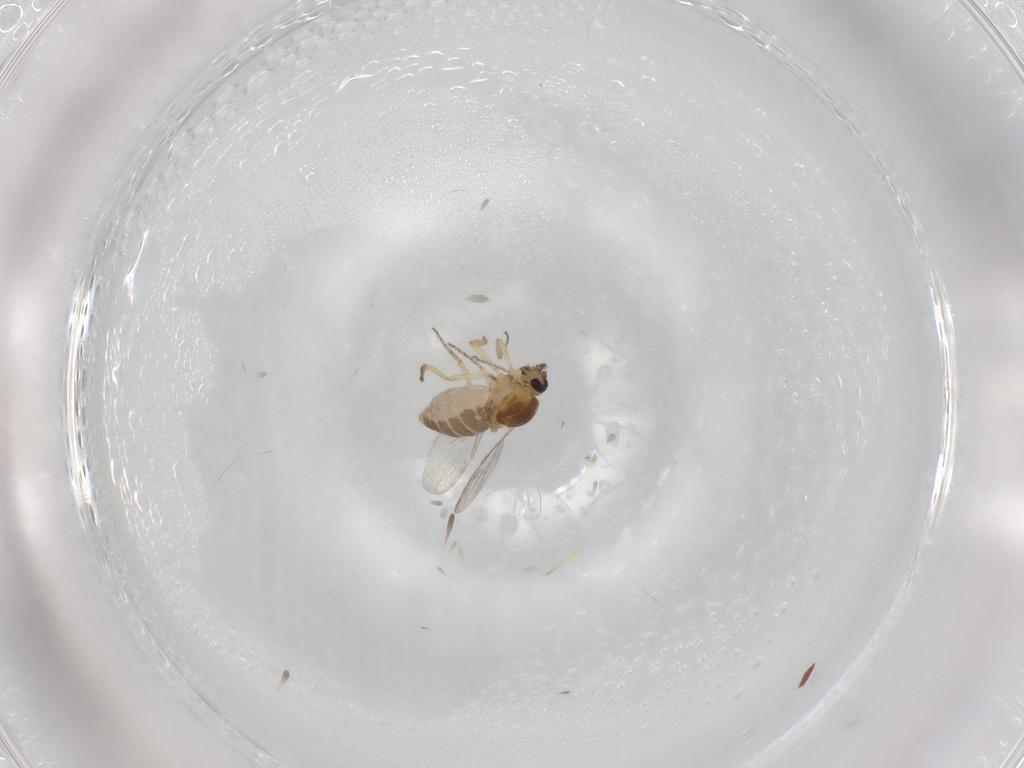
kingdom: Animalia
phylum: Arthropoda
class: Insecta
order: Diptera
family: Ceratopogonidae
